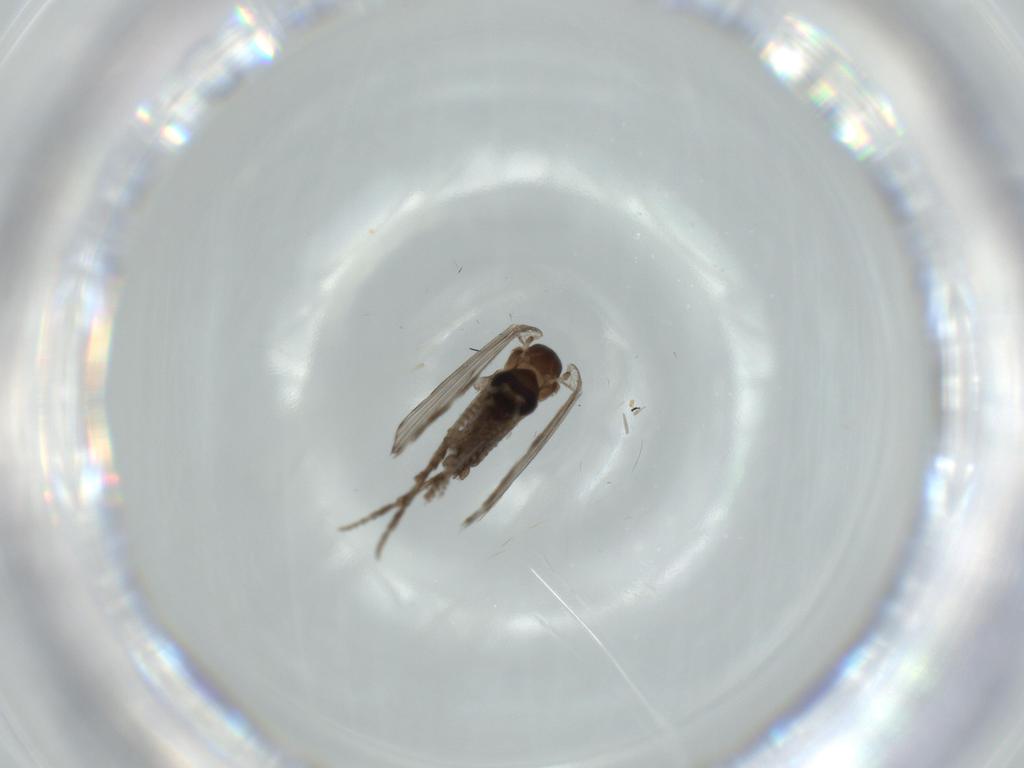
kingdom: Animalia
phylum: Arthropoda
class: Insecta
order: Diptera
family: Psychodidae
